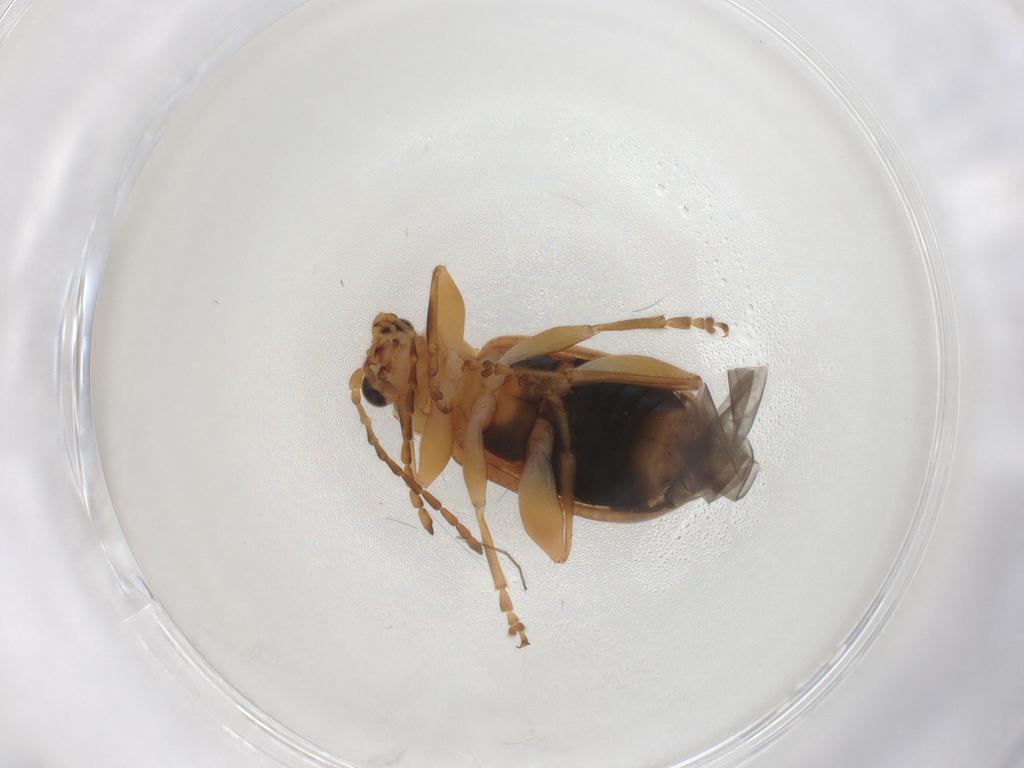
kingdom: Animalia
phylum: Arthropoda
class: Insecta
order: Coleoptera
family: Chrysomelidae
